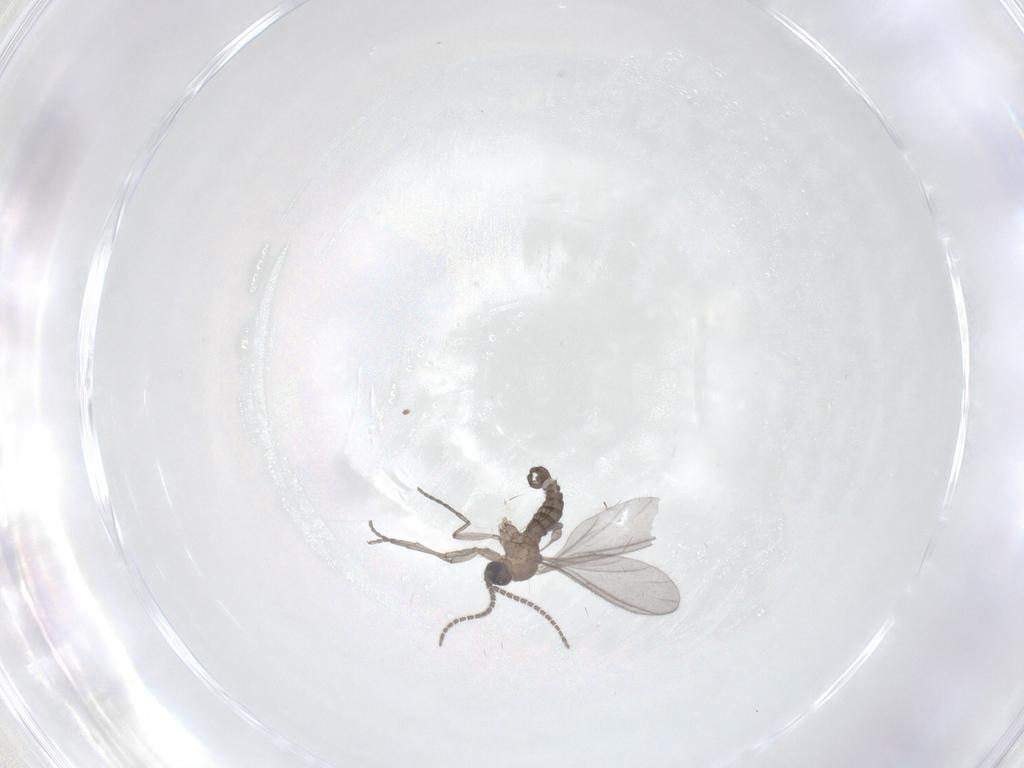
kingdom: Animalia
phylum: Arthropoda
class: Insecta
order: Diptera
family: Sciaridae
